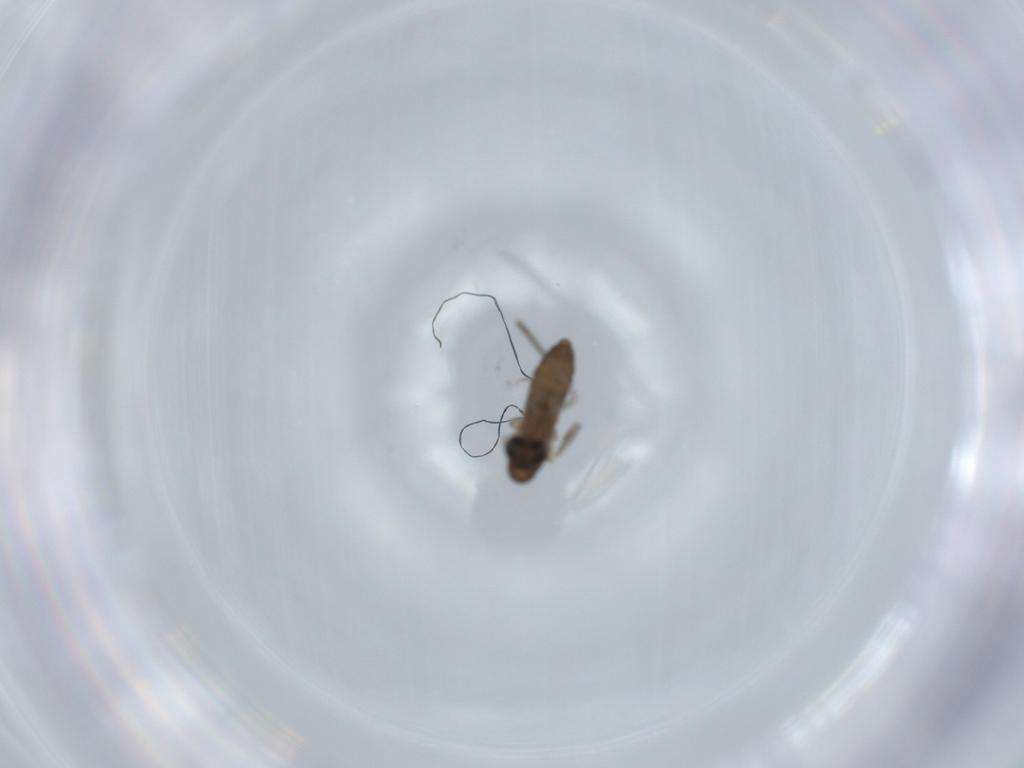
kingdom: Animalia
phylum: Arthropoda
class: Insecta
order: Diptera
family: Psychodidae
